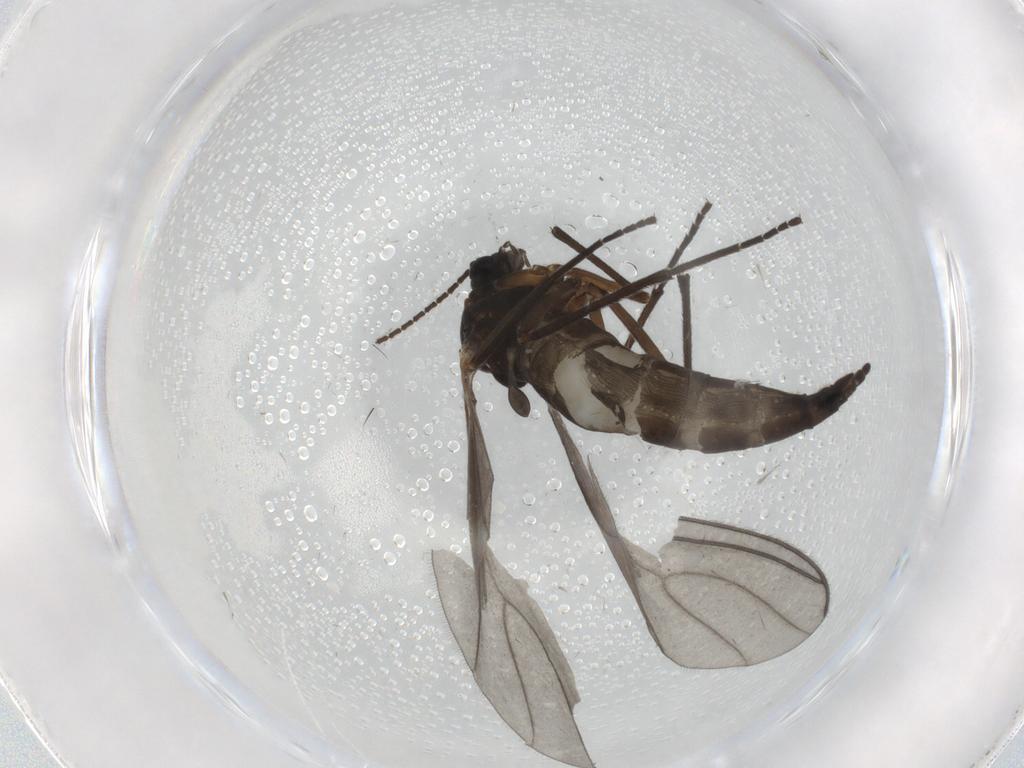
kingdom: Animalia
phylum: Arthropoda
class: Insecta
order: Diptera
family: Sciaridae
